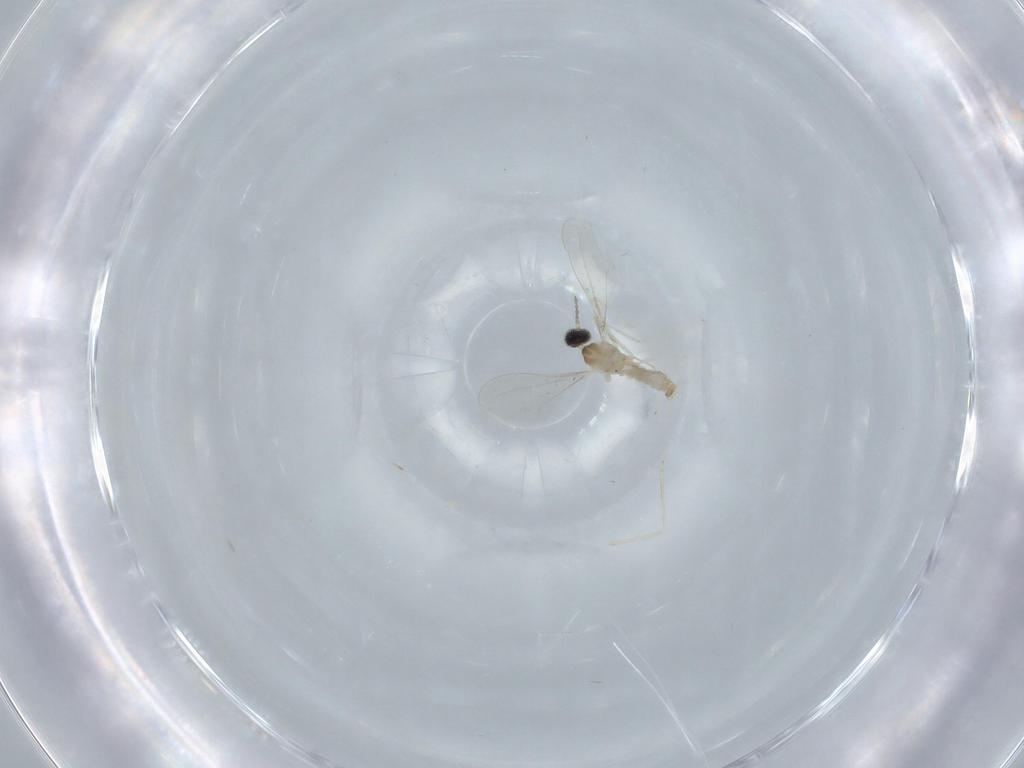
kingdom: Animalia
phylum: Arthropoda
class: Insecta
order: Diptera
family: Cecidomyiidae
